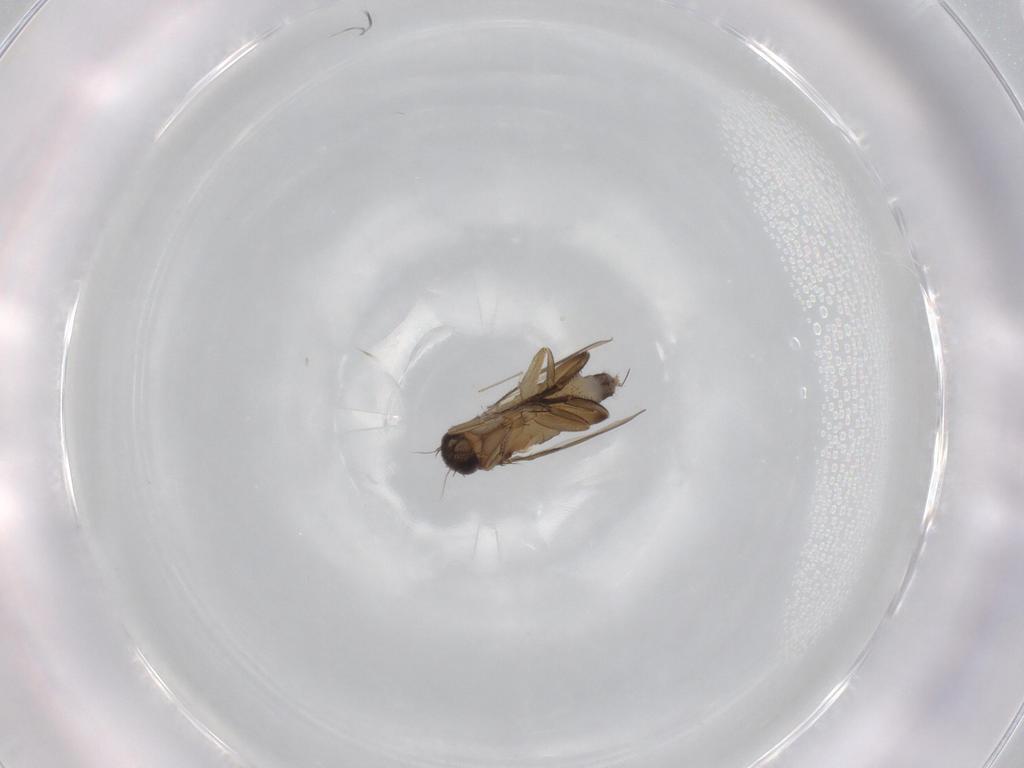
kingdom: Animalia
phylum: Arthropoda
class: Insecta
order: Diptera
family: Phoridae
